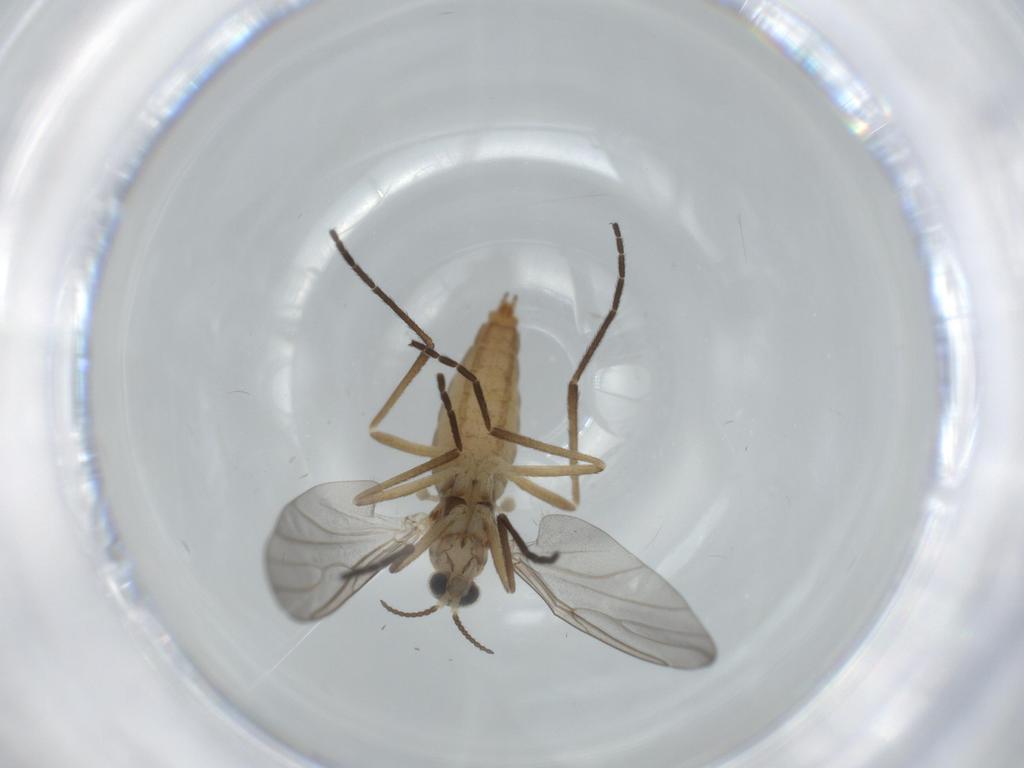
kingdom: Animalia
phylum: Arthropoda
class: Insecta
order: Diptera
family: Cecidomyiidae
